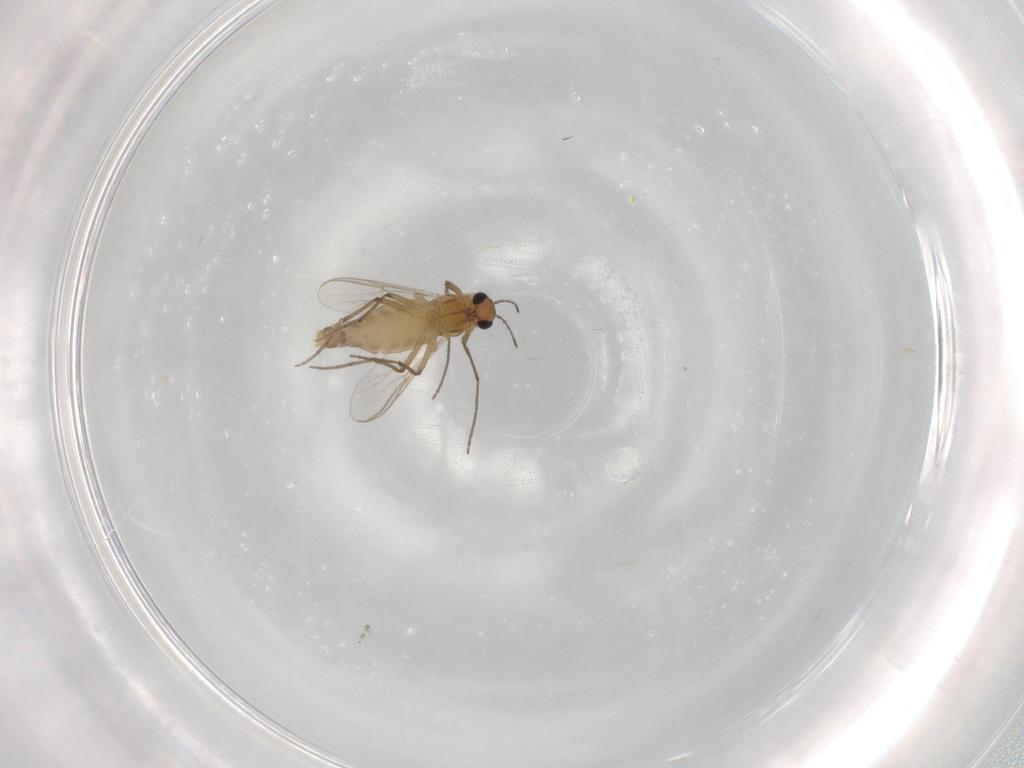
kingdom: Animalia
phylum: Arthropoda
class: Insecta
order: Diptera
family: Chironomidae
